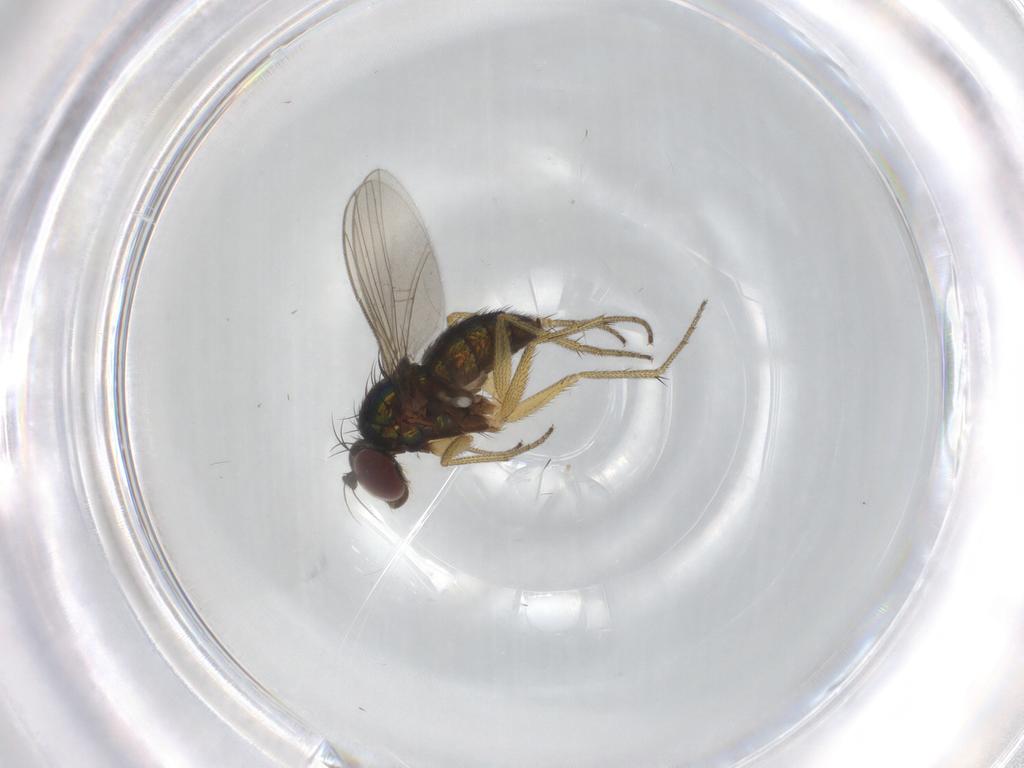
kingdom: Animalia
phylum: Arthropoda
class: Insecta
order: Diptera
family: Dolichopodidae
